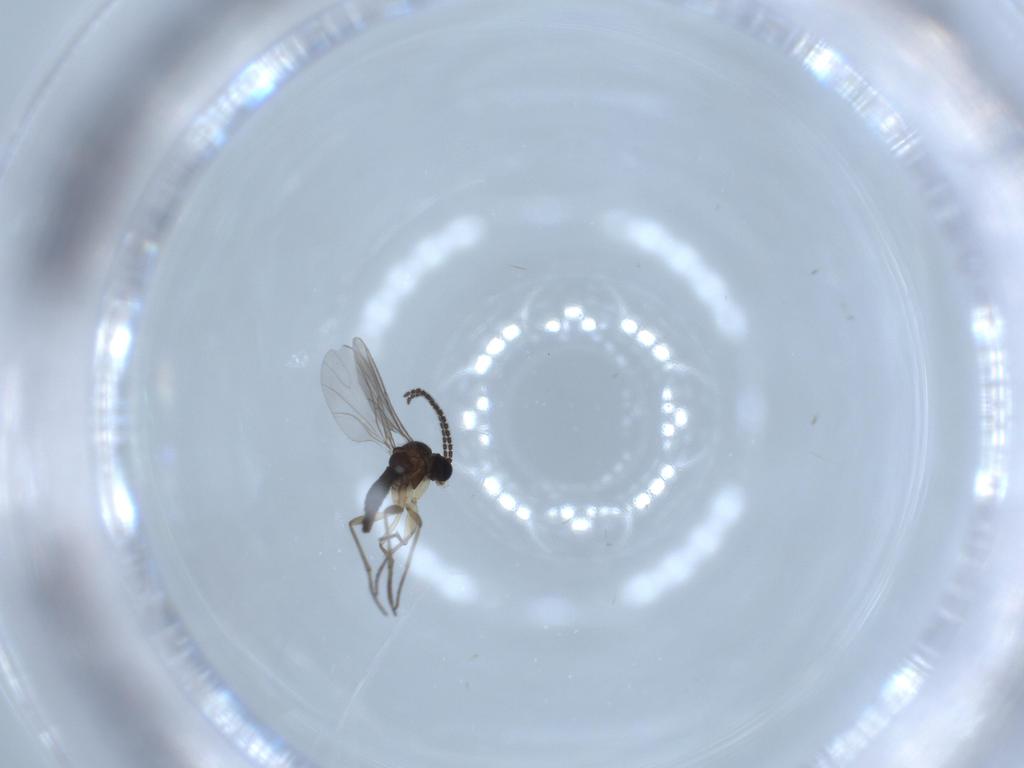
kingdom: Animalia
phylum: Arthropoda
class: Insecta
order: Diptera
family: Sciaridae
